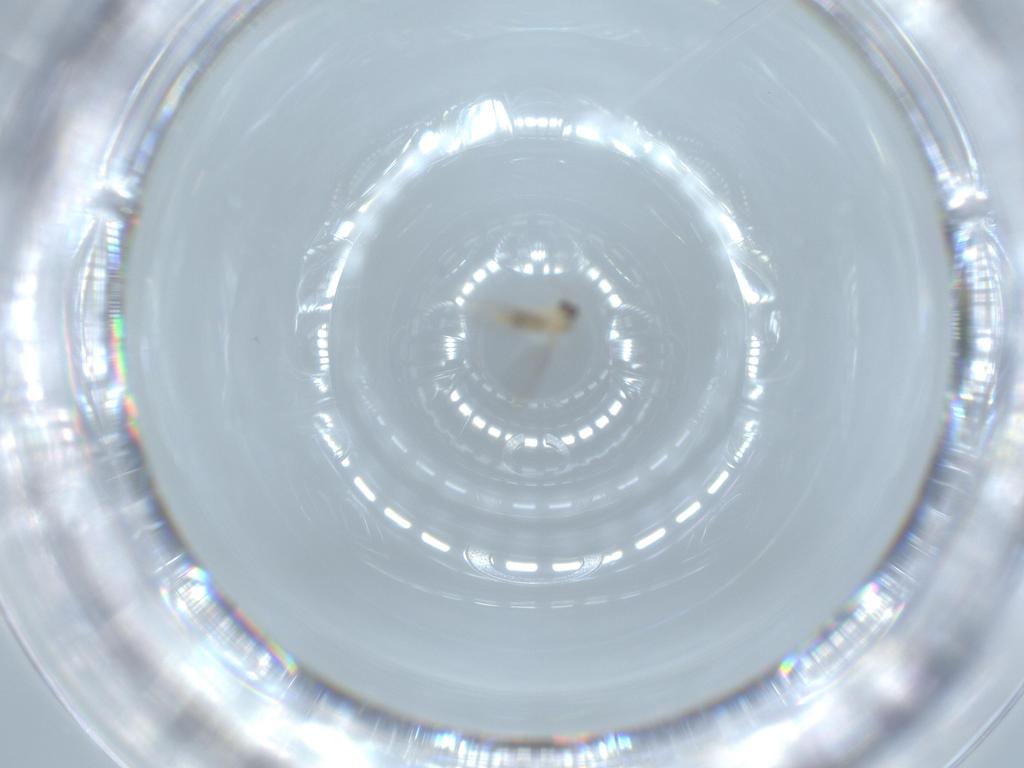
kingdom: Animalia
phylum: Arthropoda
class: Insecta
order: Diptera
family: Cecidomyiidae
